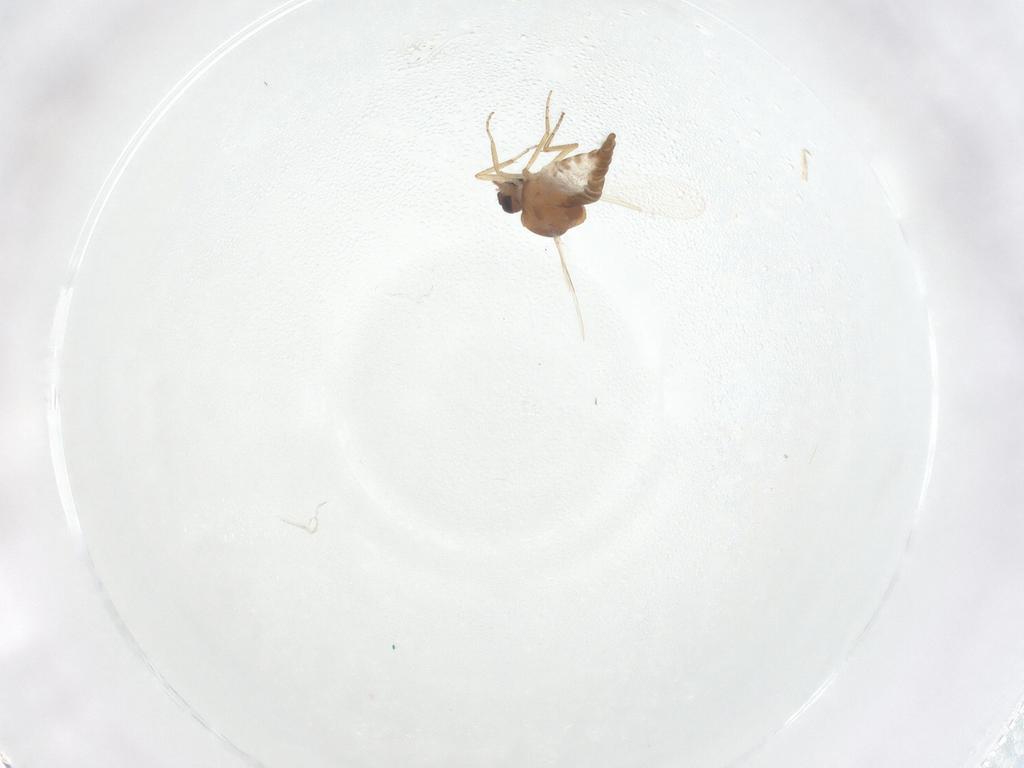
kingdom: Animalia
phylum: Arthropoda
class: Insecta
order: Diptera
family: Ceratopogonidae
